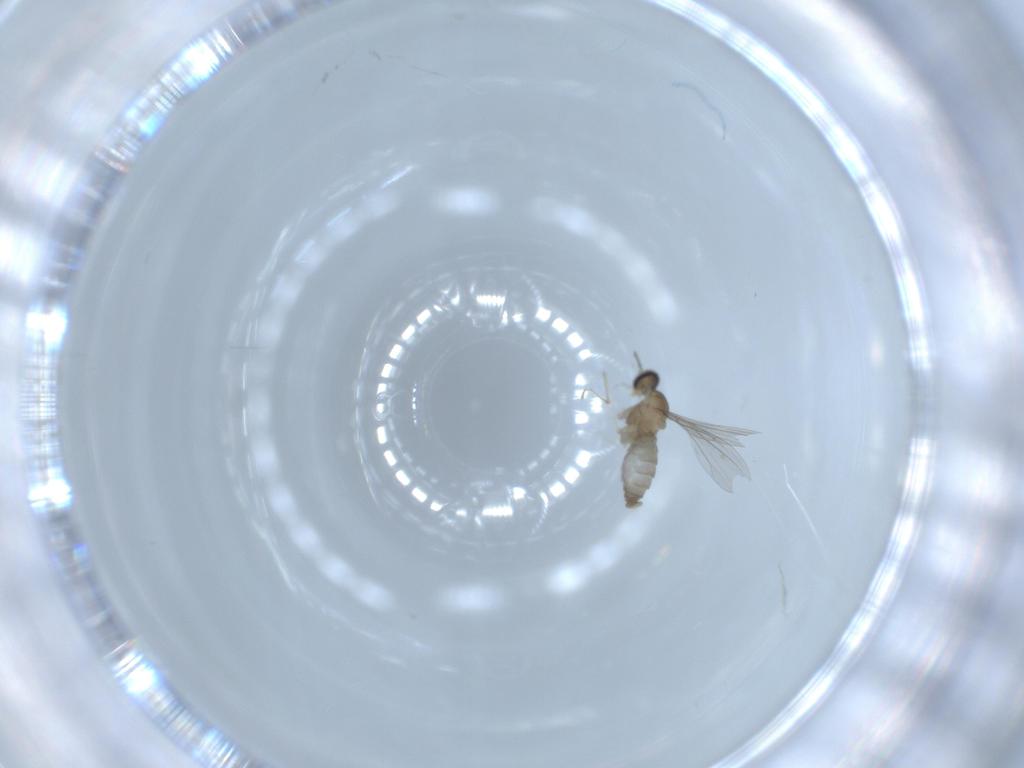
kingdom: Animalia
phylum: Arthropoda
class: Insecta
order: Diptera
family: Cecidomyiidae
